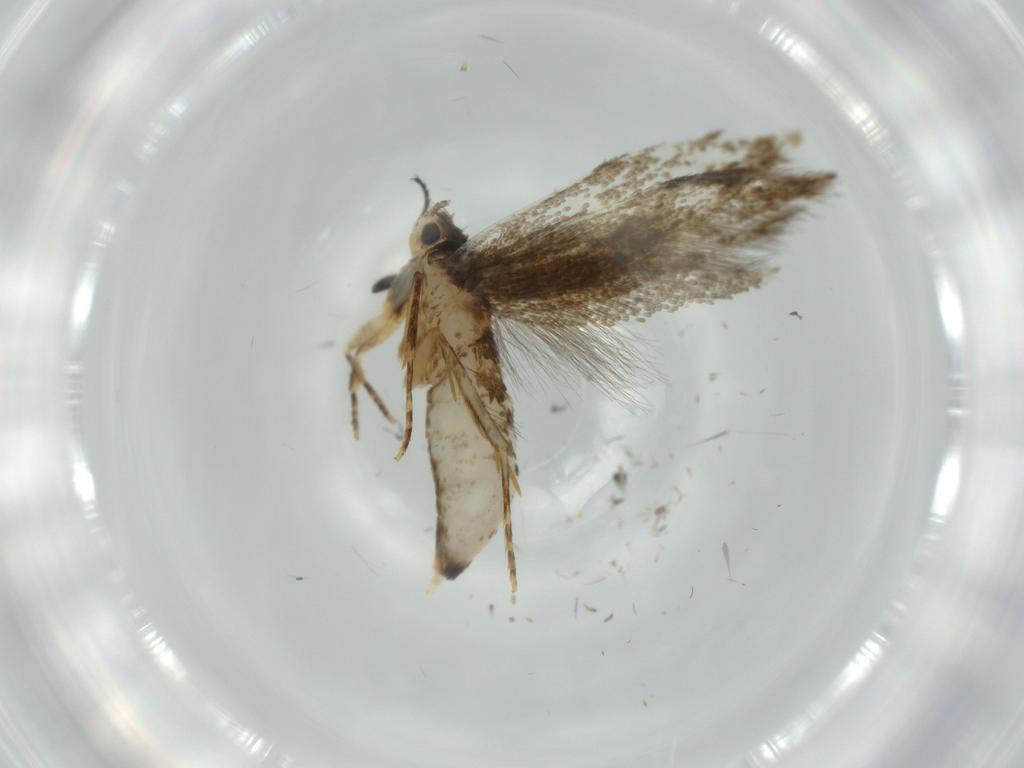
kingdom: Animalia
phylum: Arthropoda
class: Insecta
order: Lepidoptera
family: Tineidae
